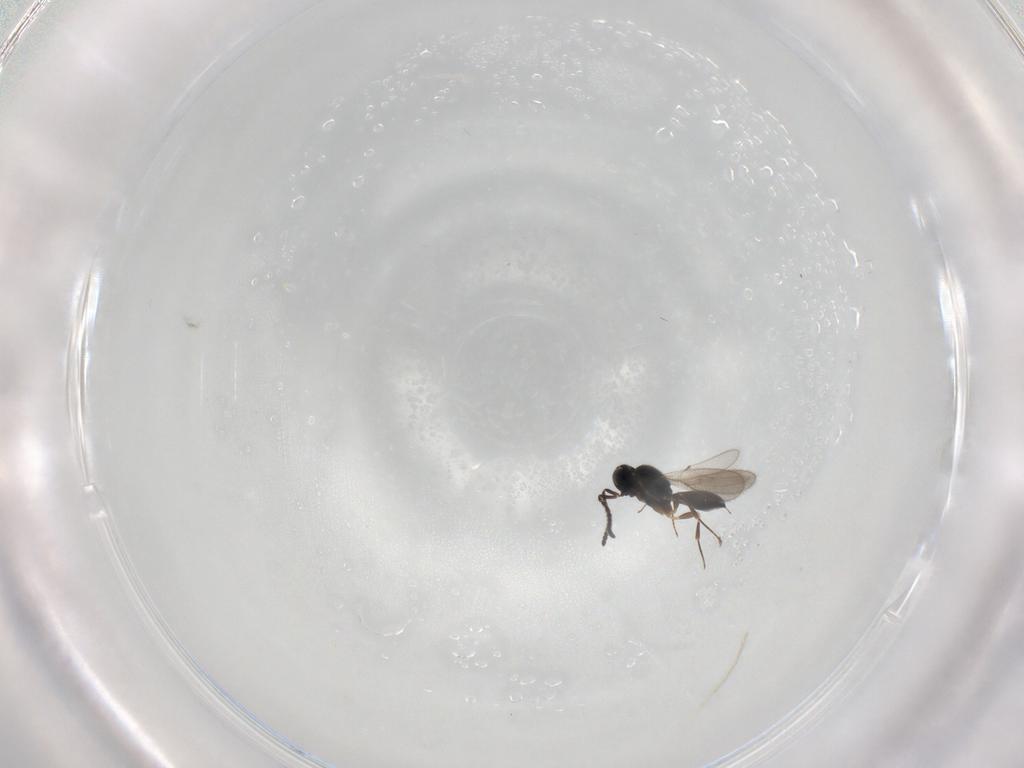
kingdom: Animalia
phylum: Arthropoda
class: Insecta
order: Hymenoptera
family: Scelionidae
